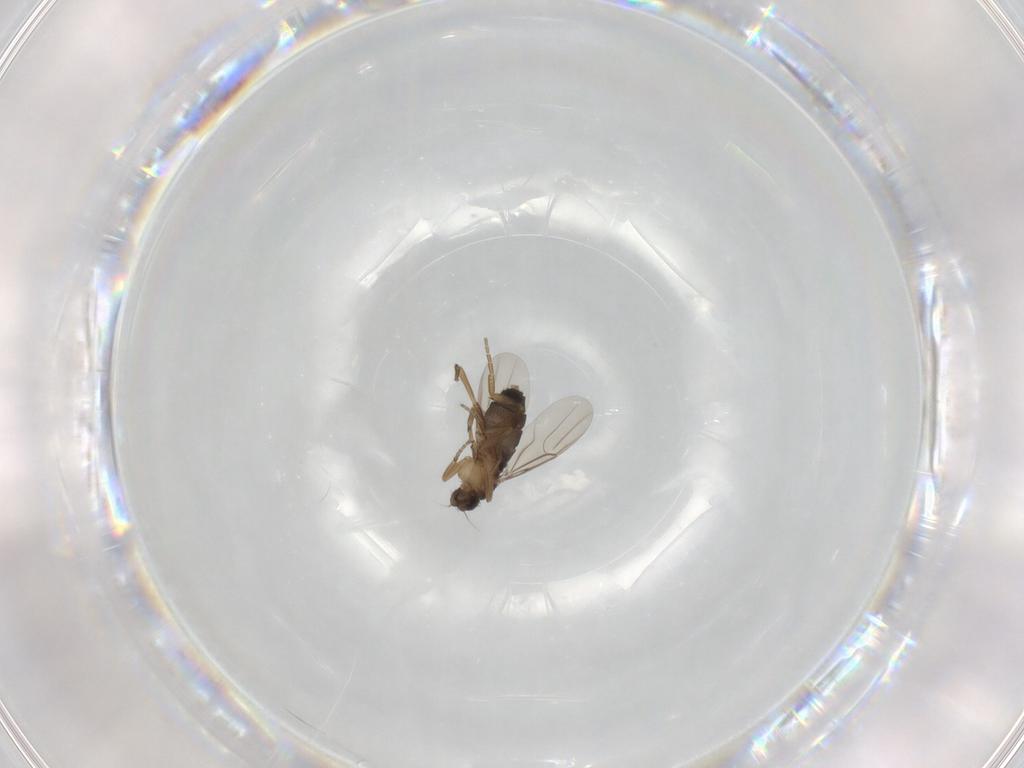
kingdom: Animalia
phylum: Arthropoda
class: Insecta
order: Diptera
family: Phoridae
